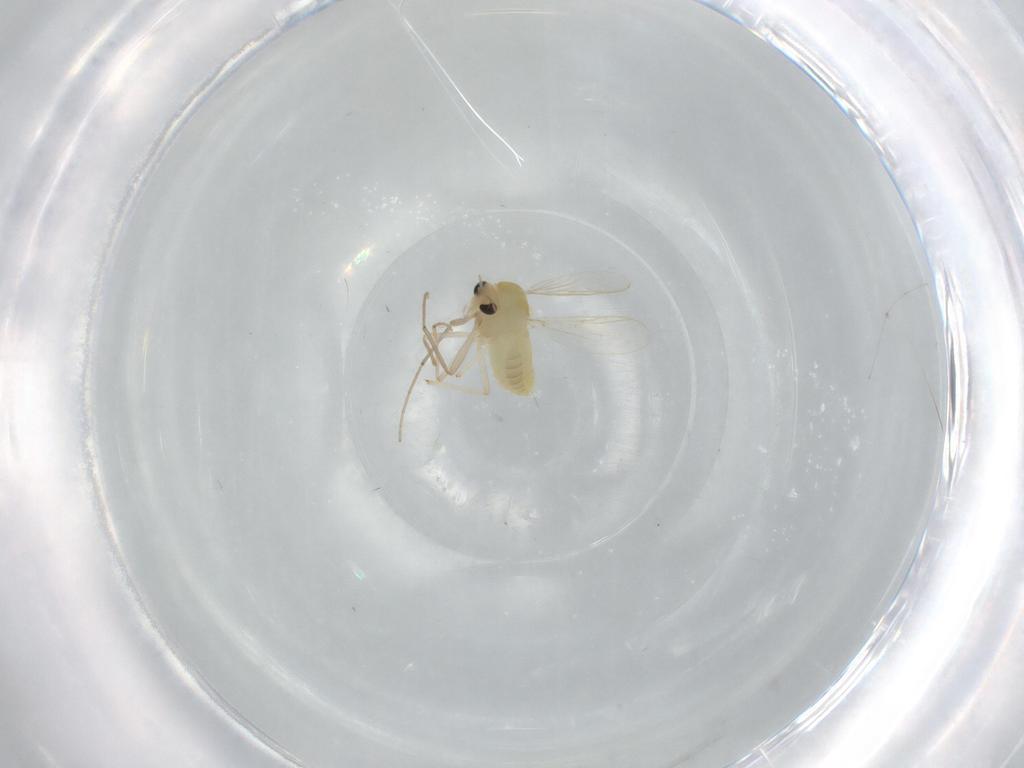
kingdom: Animalia
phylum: Arthropoda
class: Insecta
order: Diptera
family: Chironomidae
